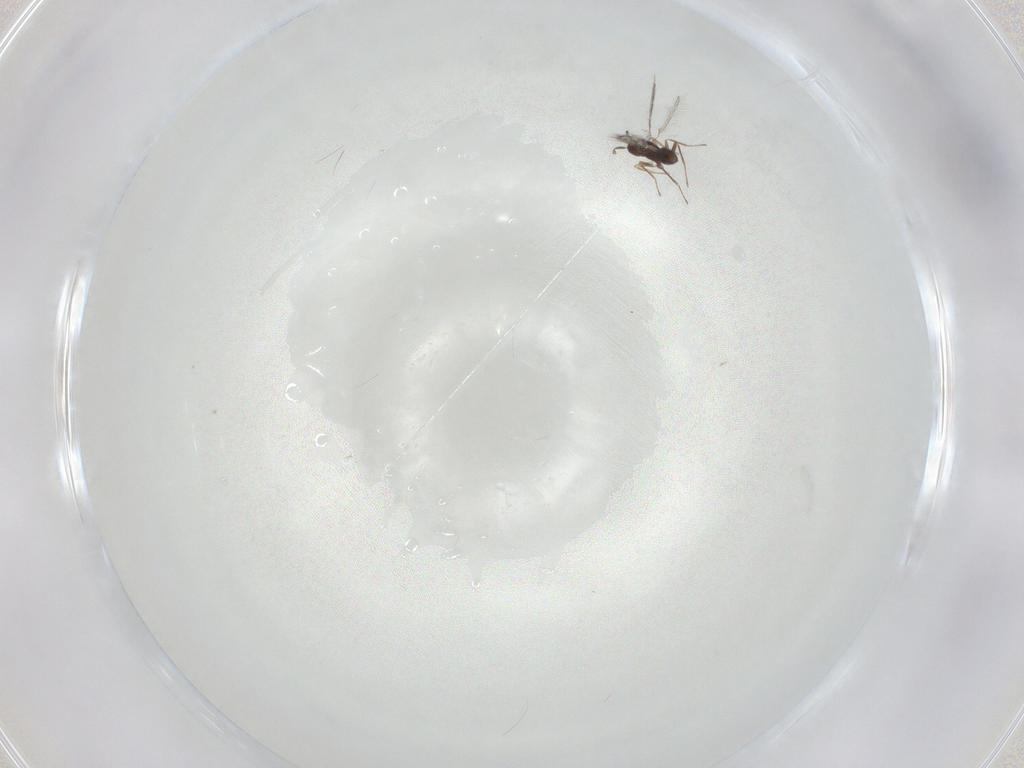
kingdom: Animalia
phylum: Arthropoda
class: Insecta
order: Hymenoptera
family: Mymaridae
